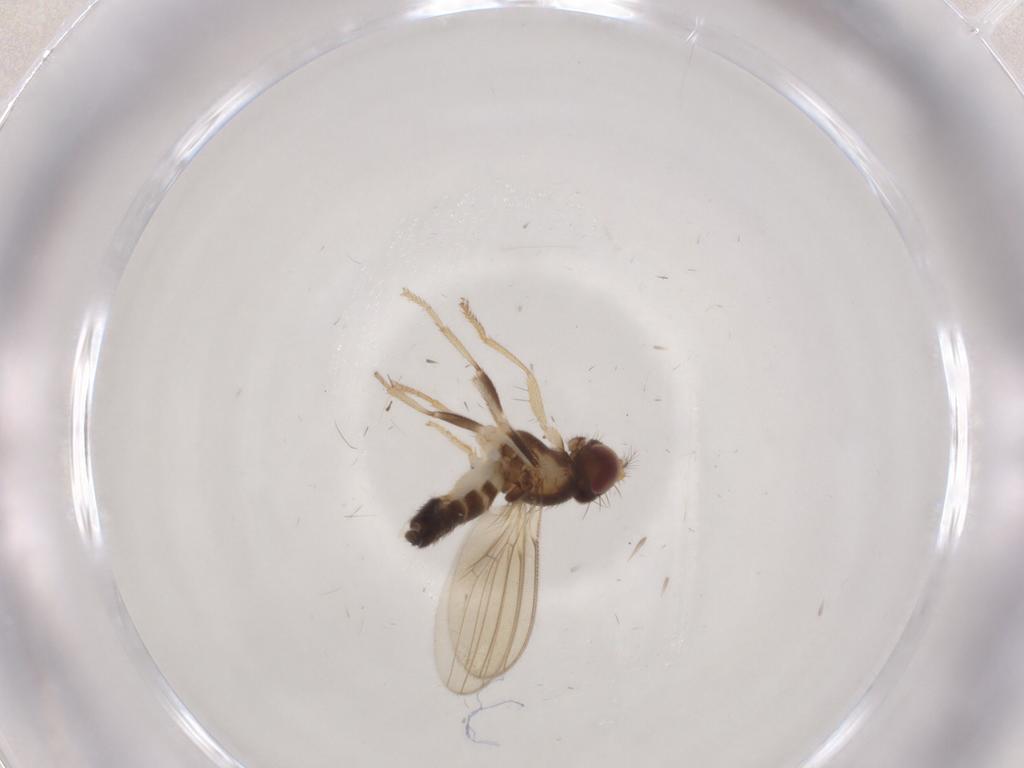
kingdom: Animalia
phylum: Arthropoda
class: Insecta
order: Diptera
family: Periscelididae
